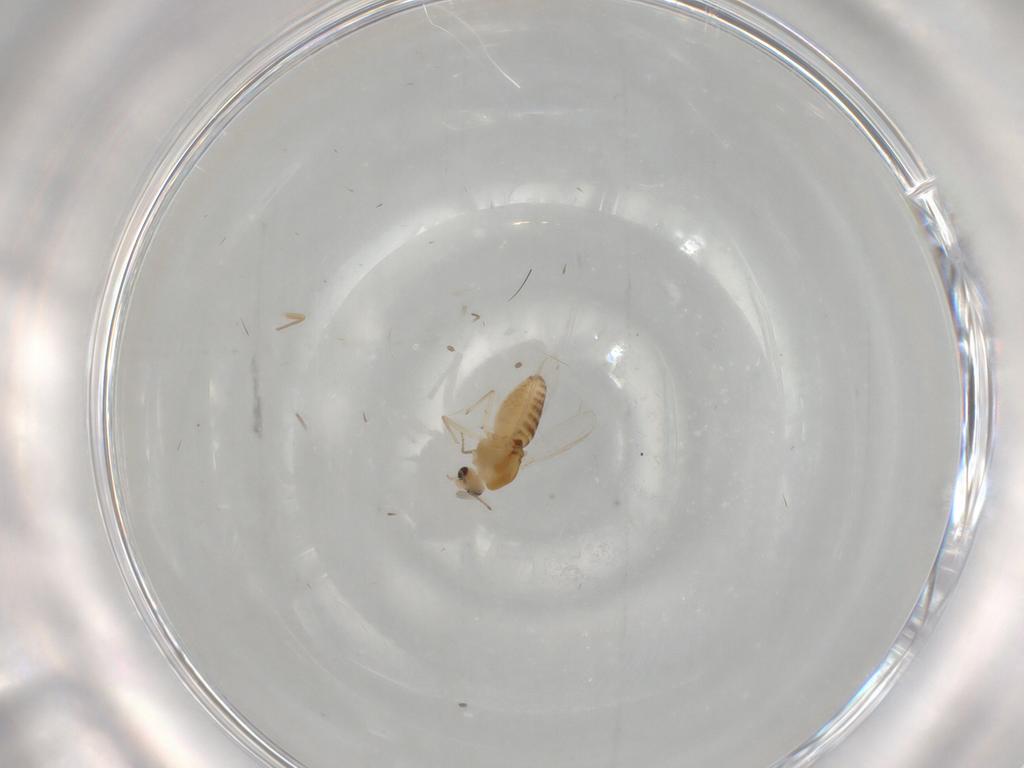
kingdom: Animalia
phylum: Arthropoda
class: Insecta
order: Diptera
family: Chironomidae
